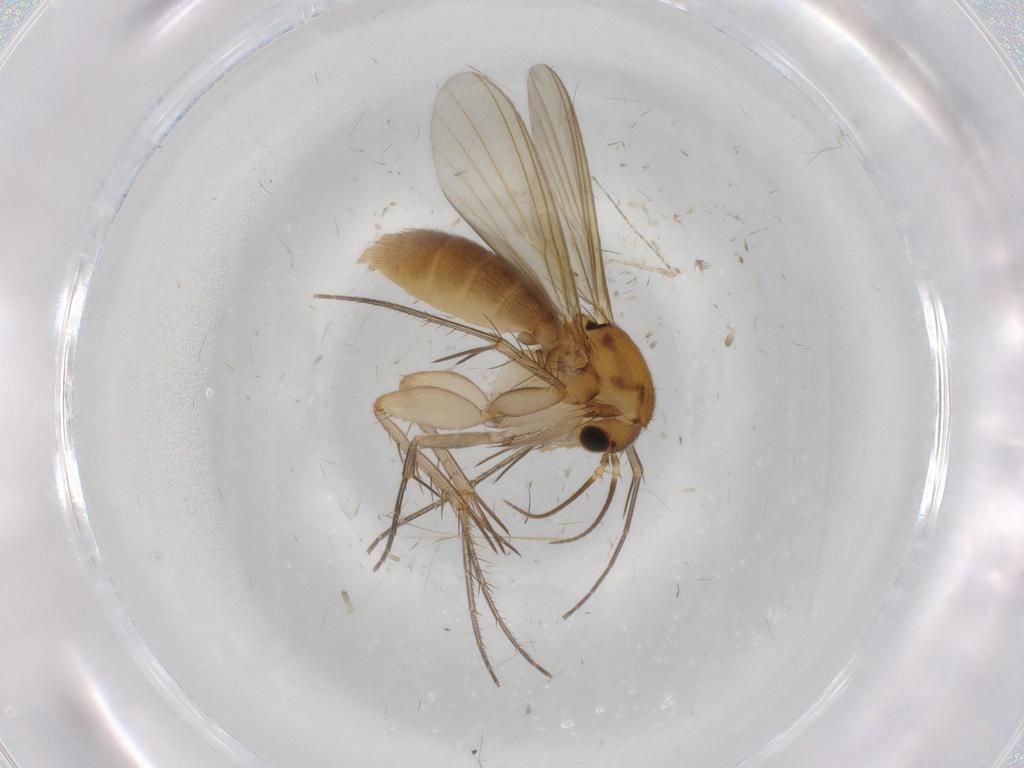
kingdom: Animalia
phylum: Arthropoda
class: Insecta
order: Diptera
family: Mycetophilidae
